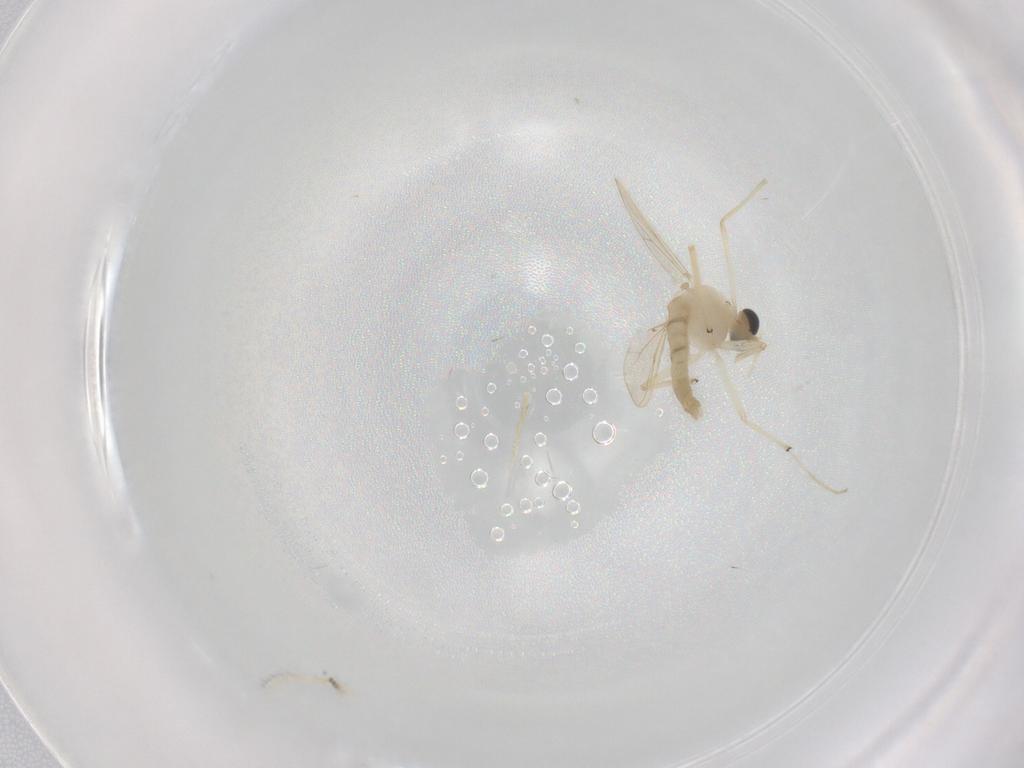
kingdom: Animalia
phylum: Arthropoda
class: Insecta
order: Diptera
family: Chironomidae
